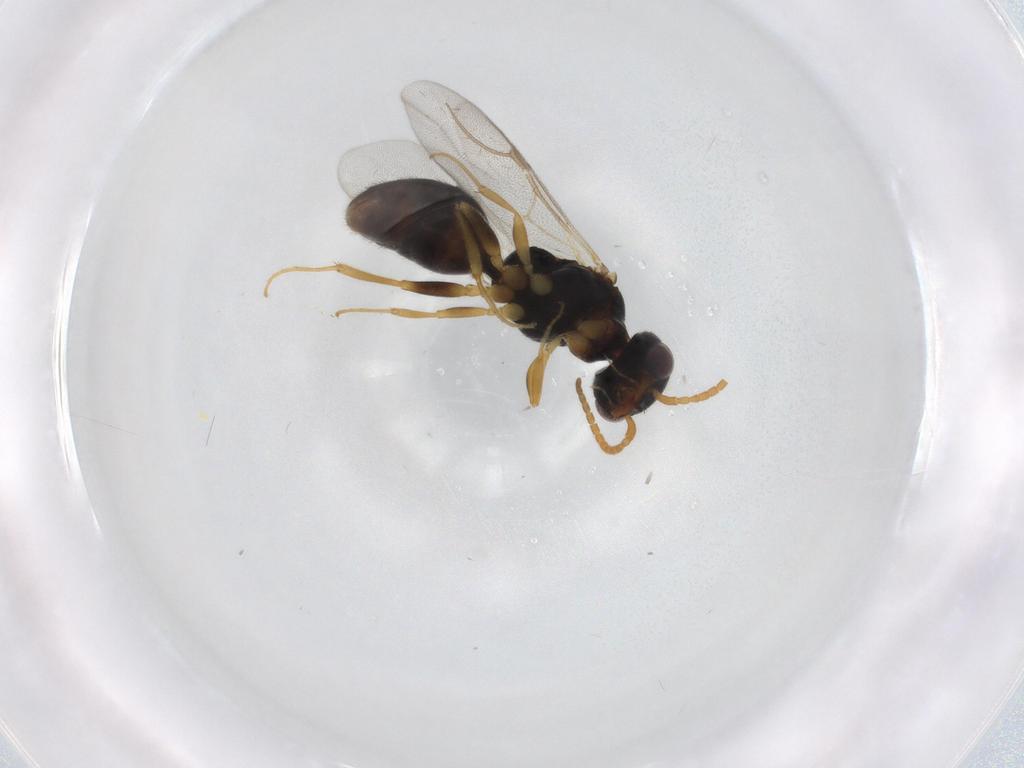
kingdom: Animalia
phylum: Arthropoda
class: Insecta
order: Hymenoptera
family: Bethylidae
